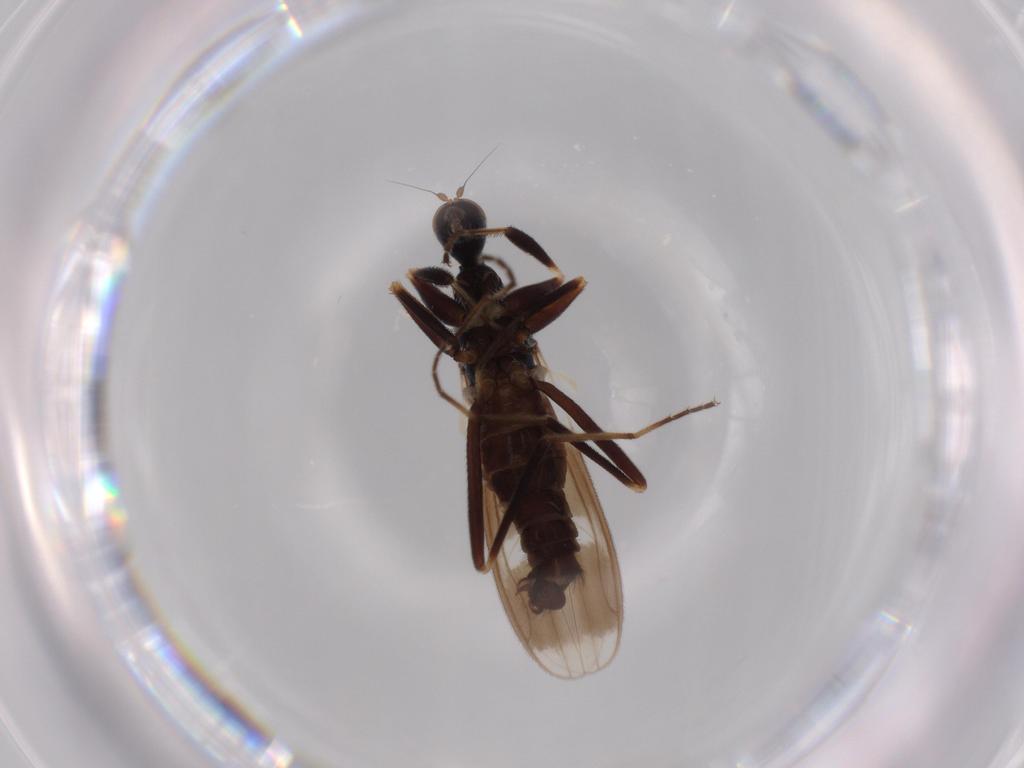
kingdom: Animalia
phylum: Arthropoda
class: Insecta
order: Diptera
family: Hybotidae
